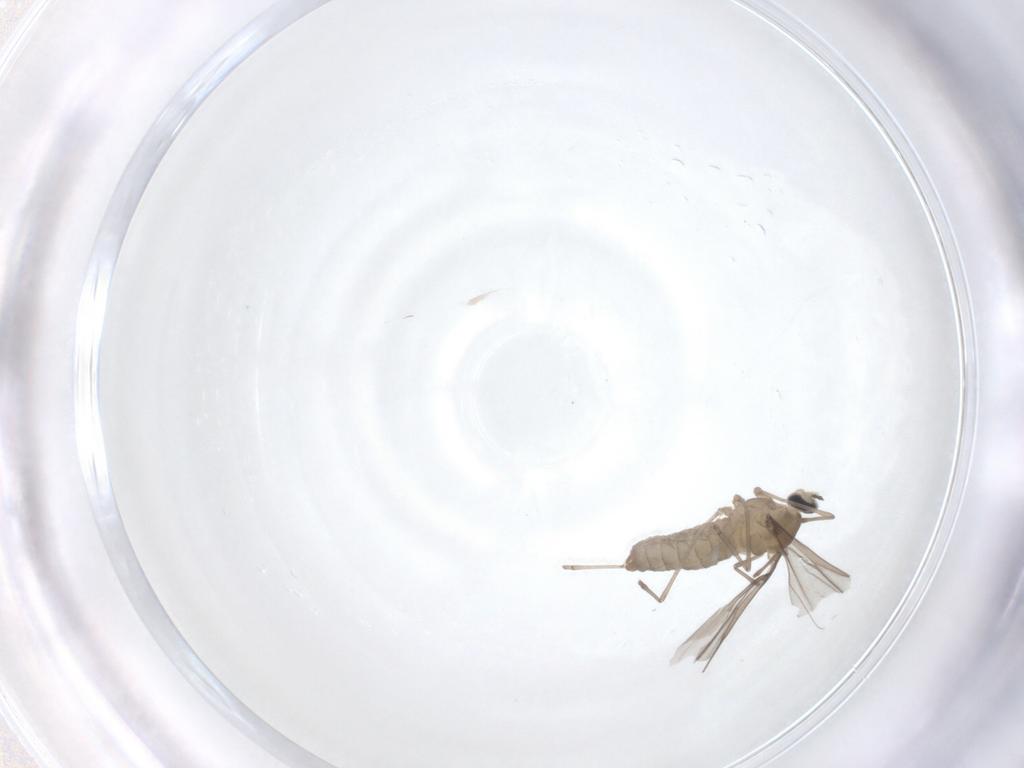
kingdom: Animalia
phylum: Arthropoda
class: Insecta
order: Diptera
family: Cecidomyiidae
